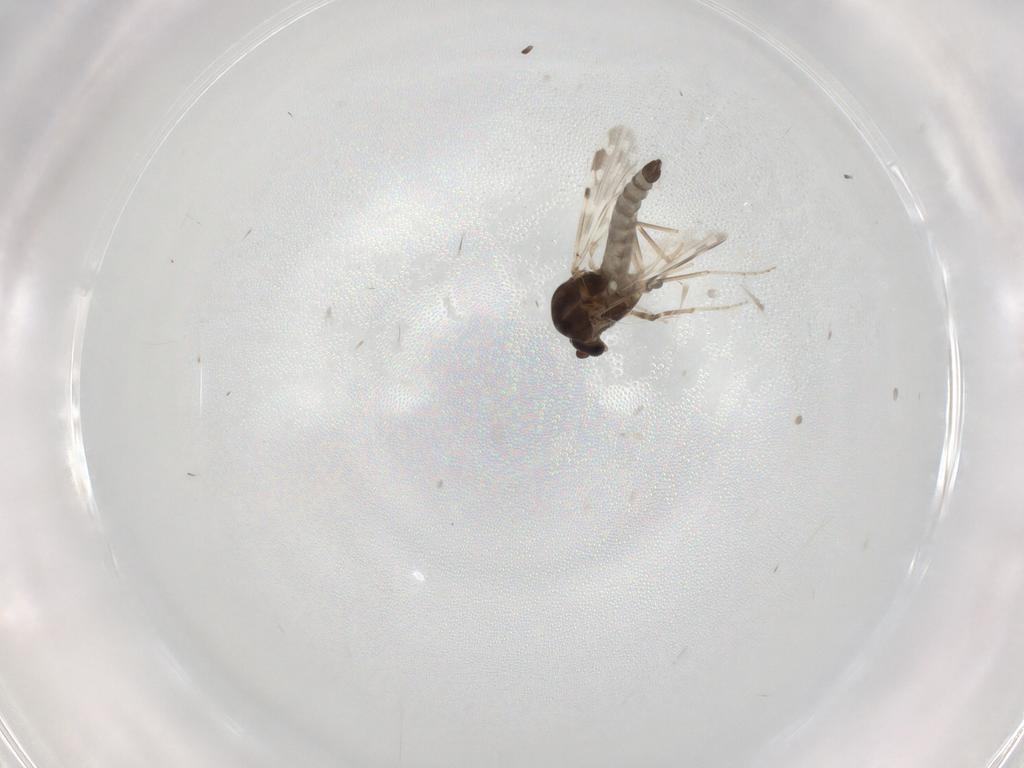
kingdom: Animalia
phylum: Arthropoda
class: Insecta
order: Diptera
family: Ceratopogonidae
